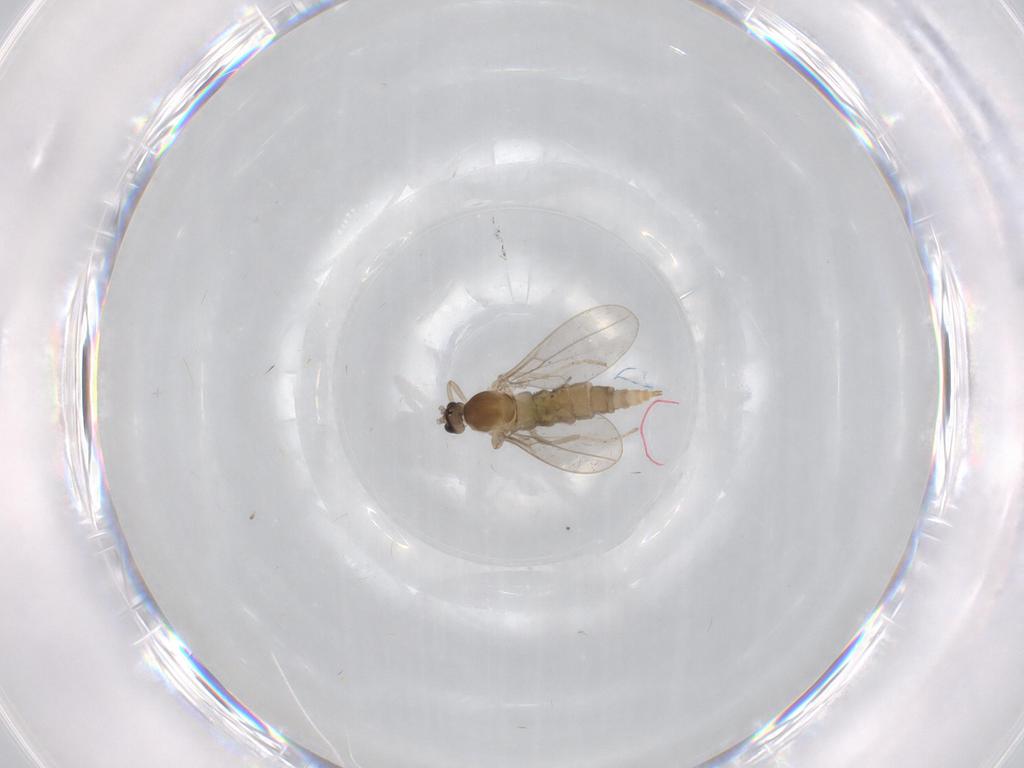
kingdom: Animalia
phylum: Arthropoda
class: Insecta
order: Diptera
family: Cecidomyiidae
